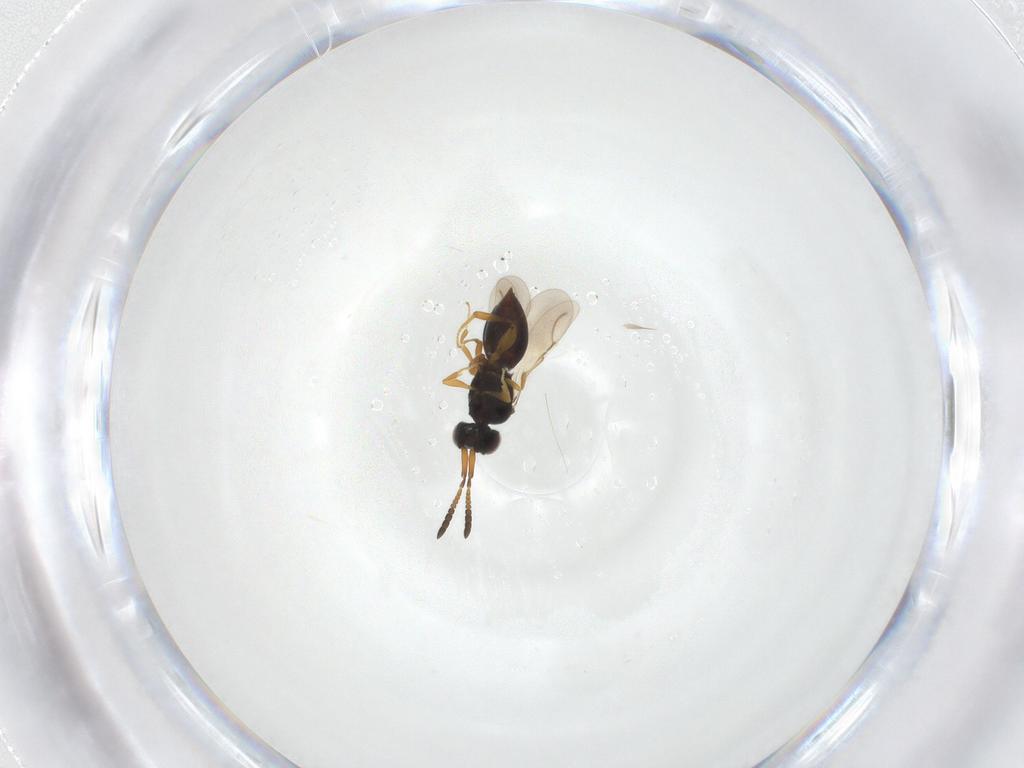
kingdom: Animalia
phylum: Arthropoda
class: Insecta
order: Hymenoptera
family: Ceraphronidae
